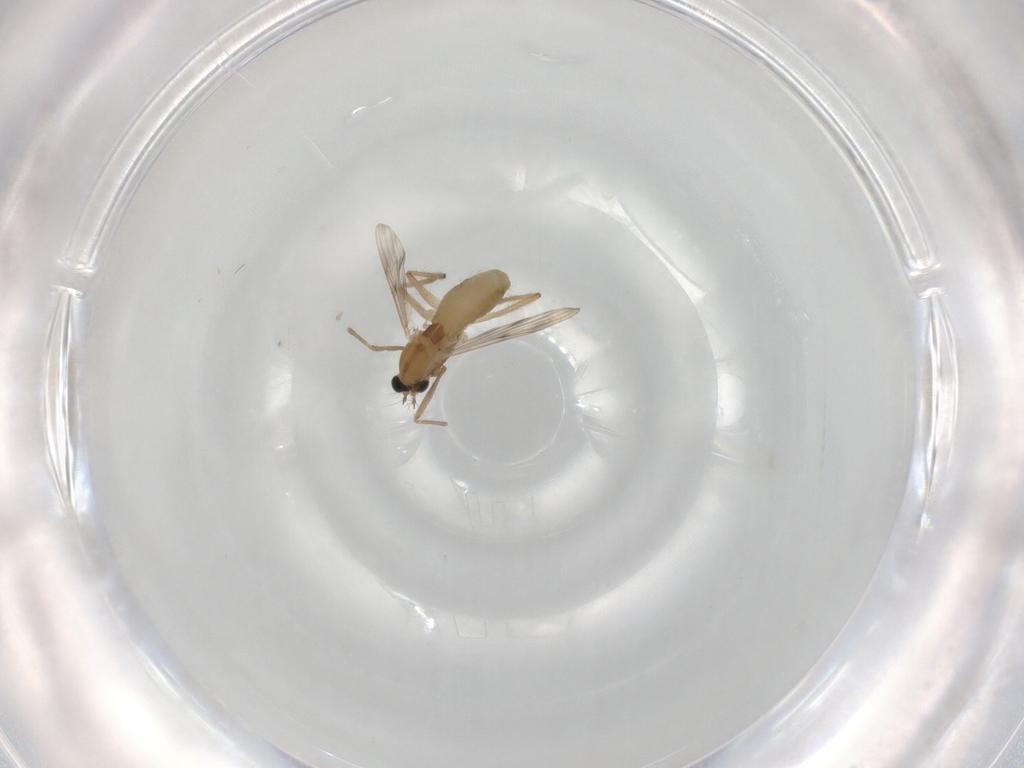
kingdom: Animalia
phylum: Arthropoda
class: Insecta
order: Diptera
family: Chironomidae
